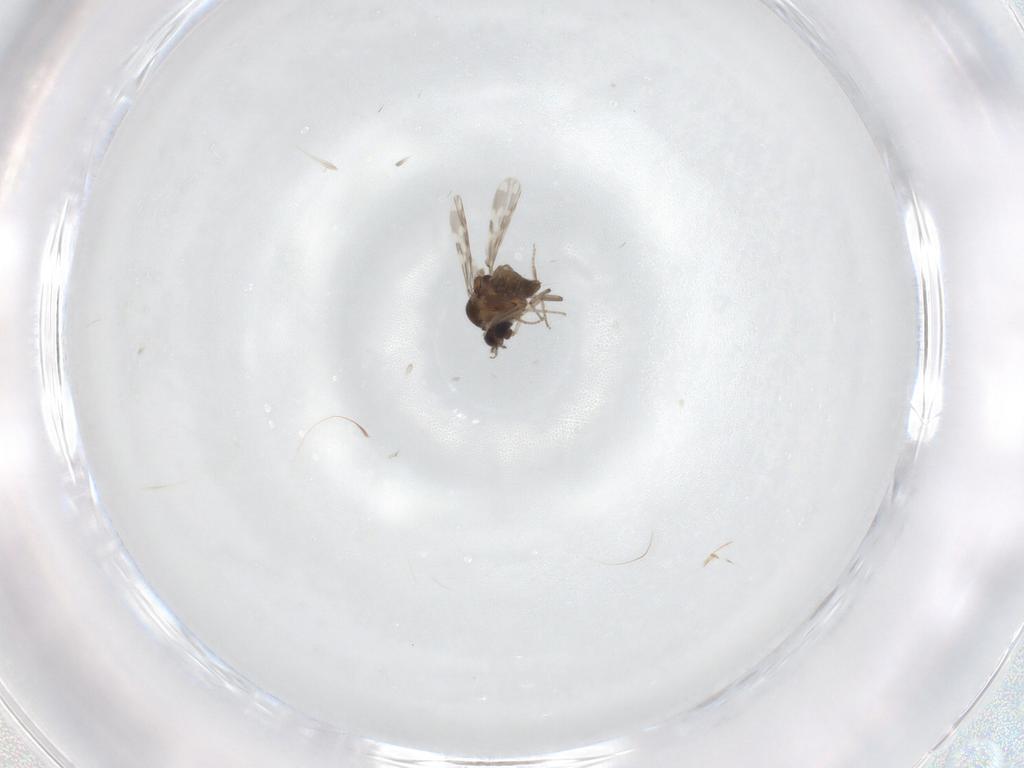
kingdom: Animalia
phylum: Arthropoda
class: Insecta
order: Diptera
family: Ceratopogonidae
